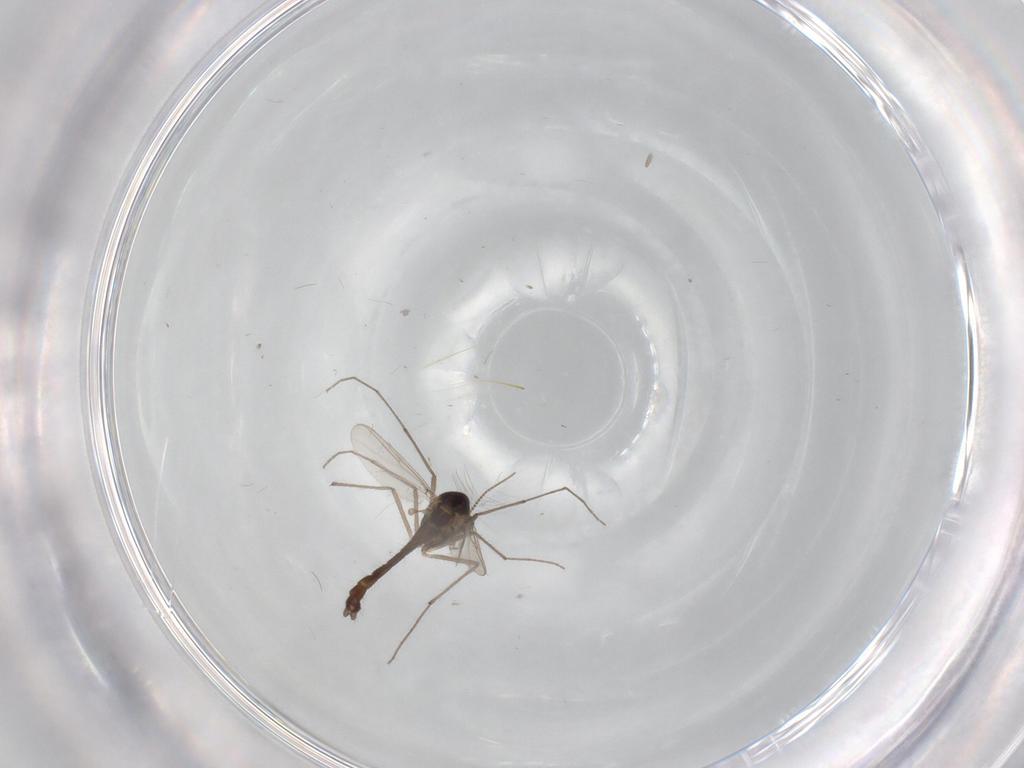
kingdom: Animalia
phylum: Arthropoda
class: Insecta
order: Diptera
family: Chironomidae
